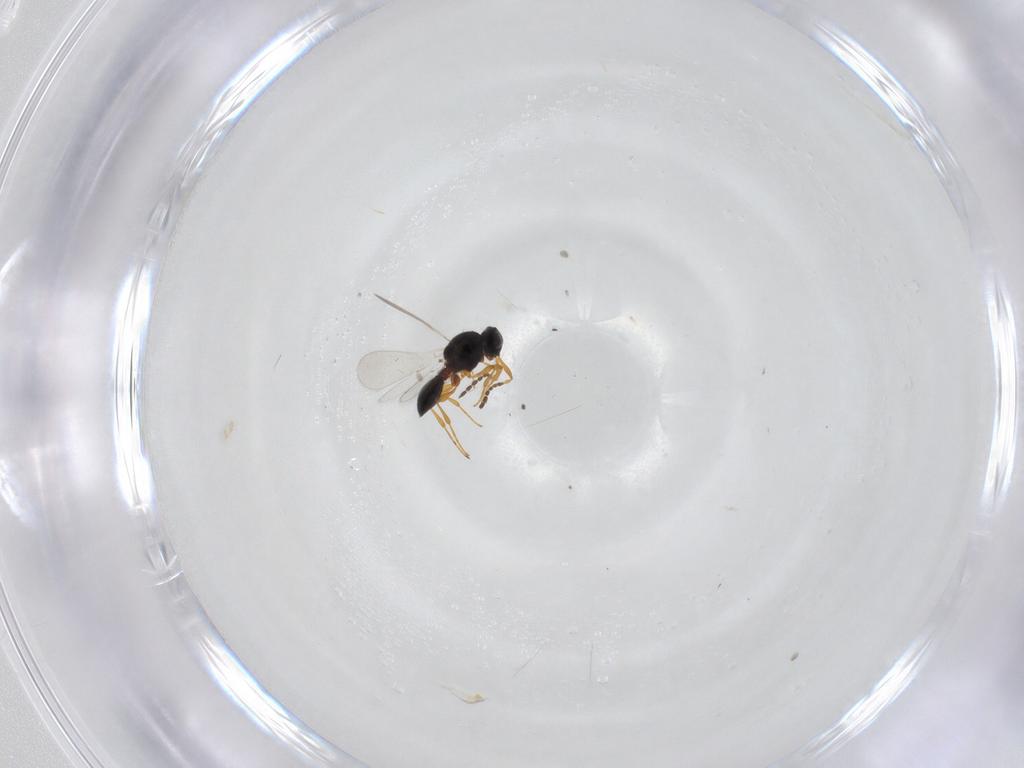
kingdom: Animalia
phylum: Arthropoda
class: Insecta
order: Hymenoptera
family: Platygastridae
